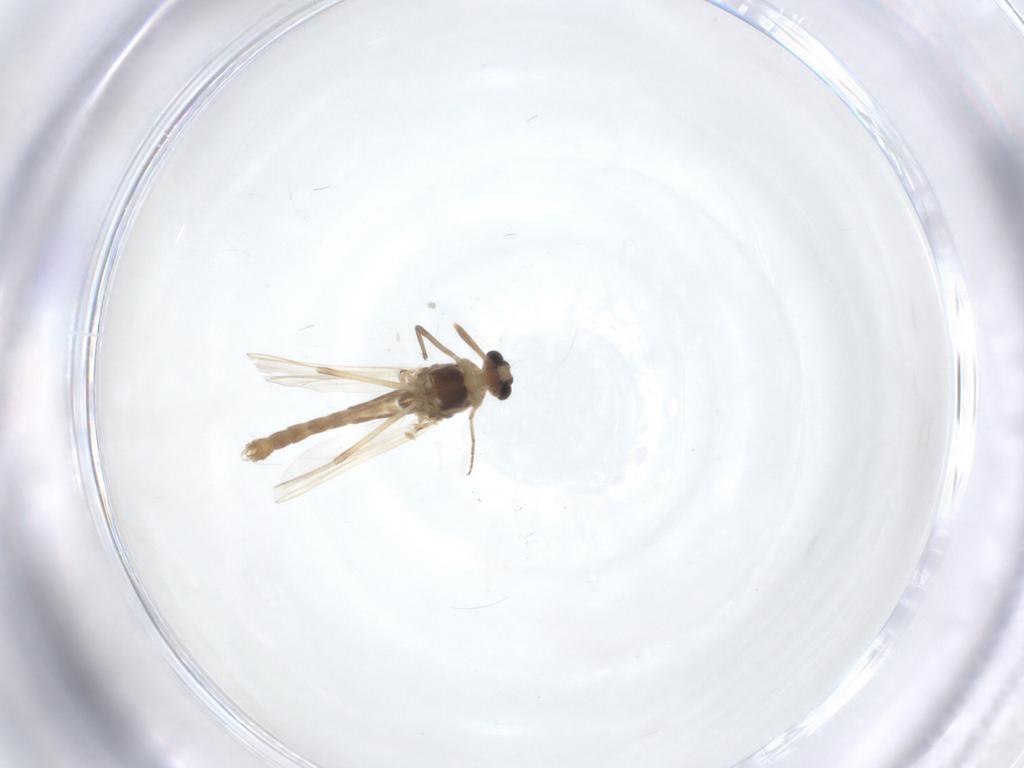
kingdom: Animalia
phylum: Arthropoda
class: Insecta
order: Diptera
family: Chironomidae
